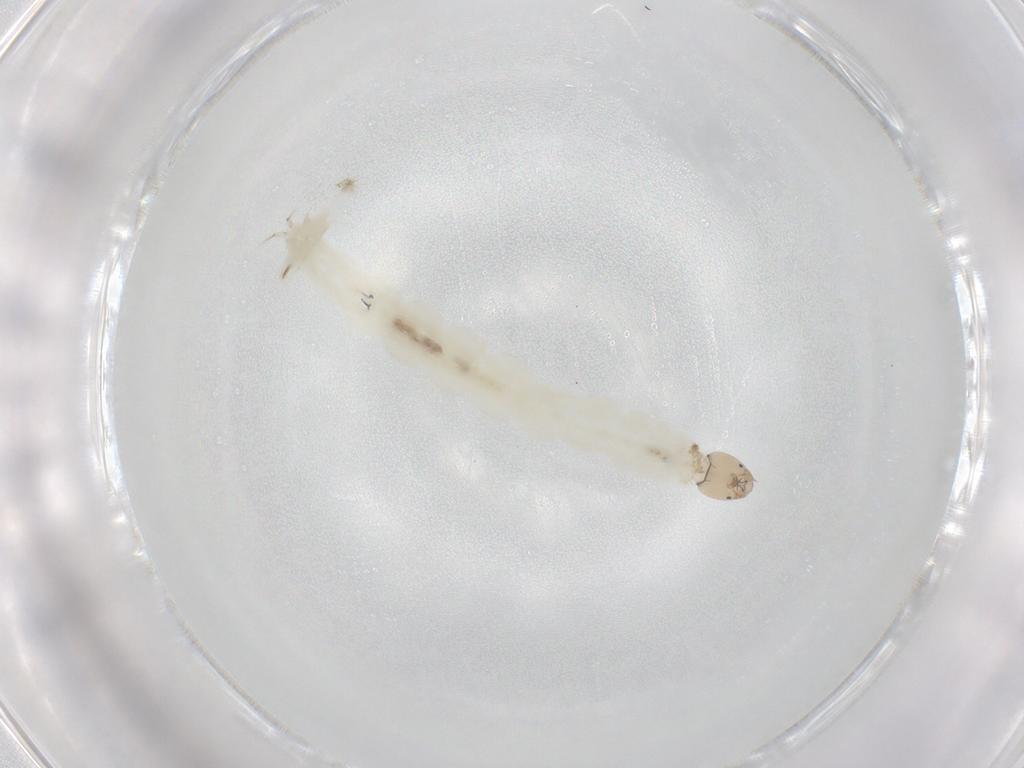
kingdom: Animalia
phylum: Arthropoda
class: Insecta
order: Diptera
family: Chironomidae
